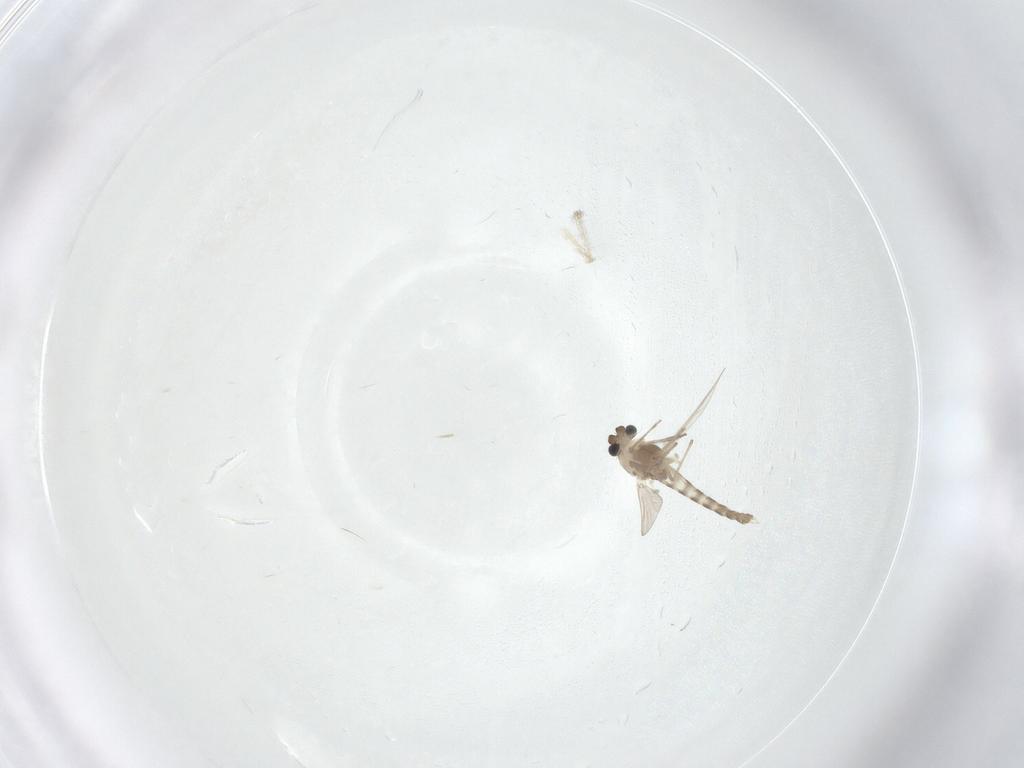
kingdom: Animalia
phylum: Arthropoda
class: Insecta
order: Diptera
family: Chironomidae
